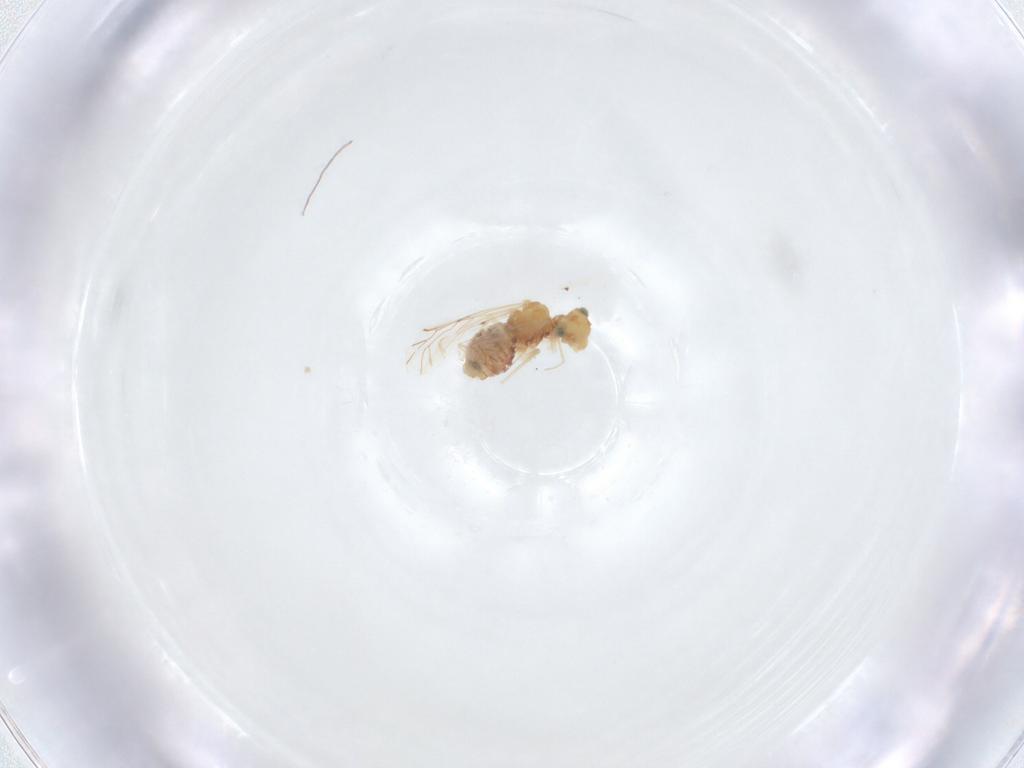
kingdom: Animalia
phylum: Arthropoda
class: Insecta
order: Psocodea
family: Lachesillidae
